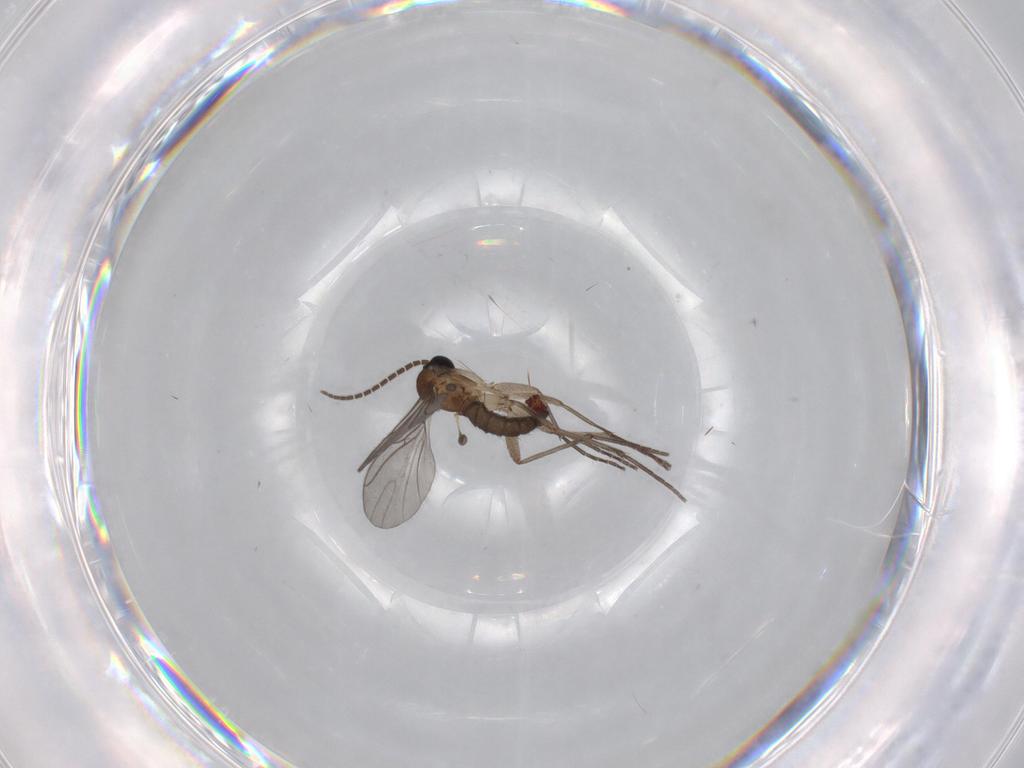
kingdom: Animalia
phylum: Arthropoda
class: Insecta
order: Diptera
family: Sciaridae
